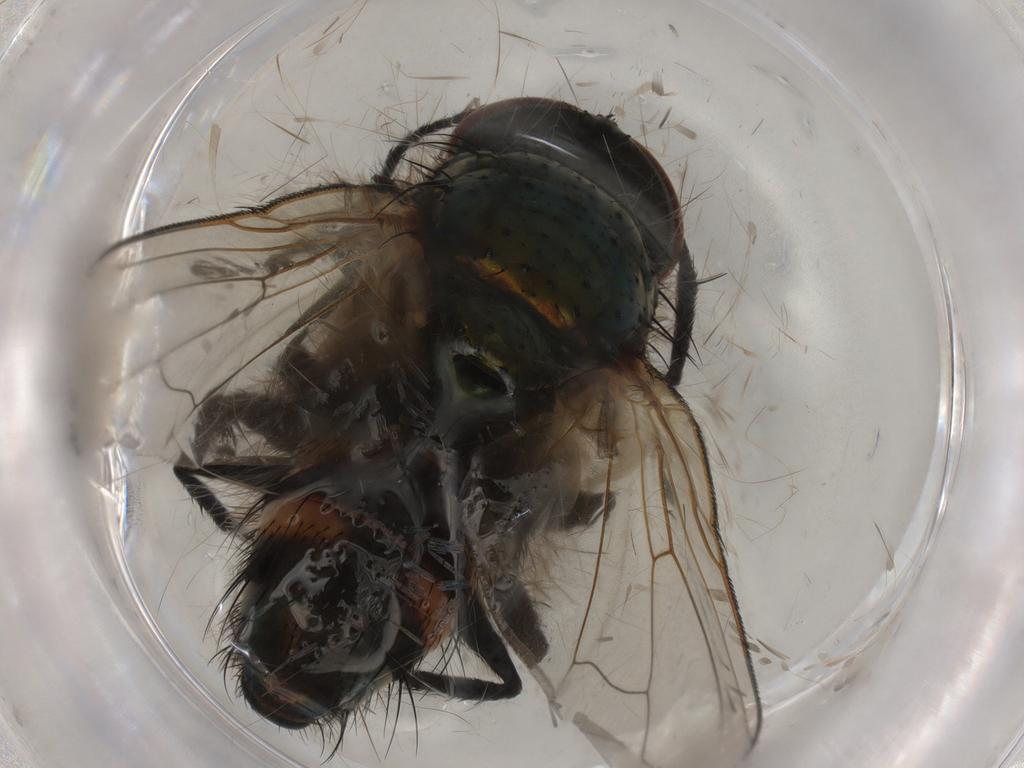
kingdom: Animalia
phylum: Arthropoda
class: Insecta
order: Diptera
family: Calliphoridae
